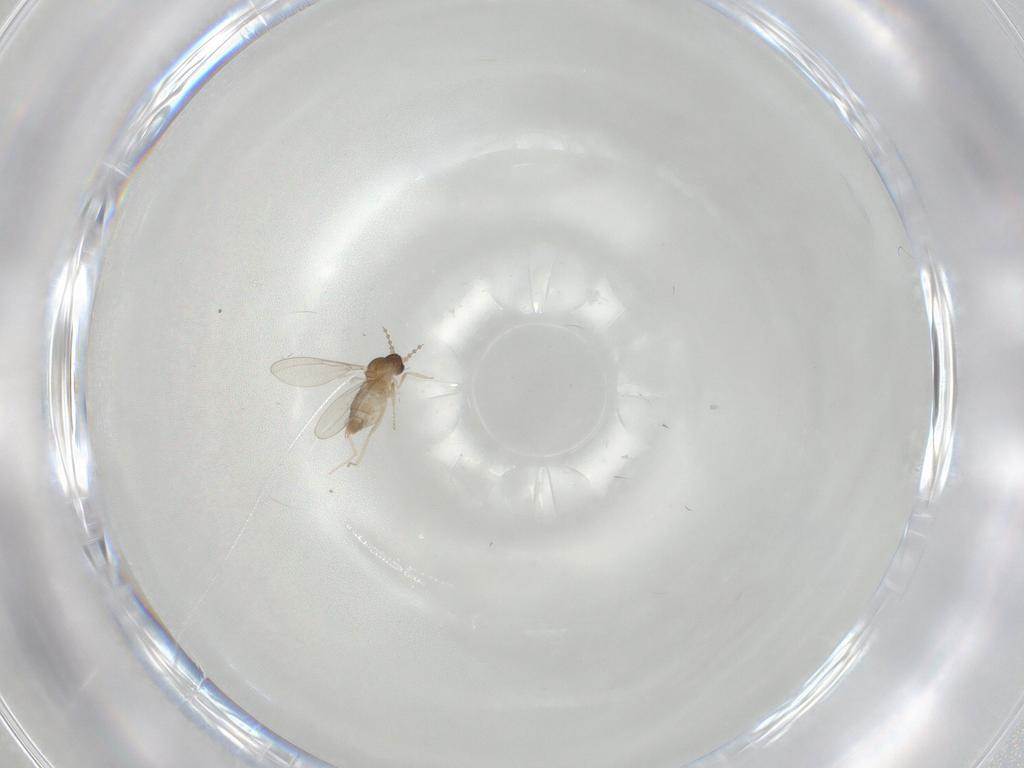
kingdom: Animalia
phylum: Arthropoda
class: Insecta
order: Diptera
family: Cecidomyiidae
